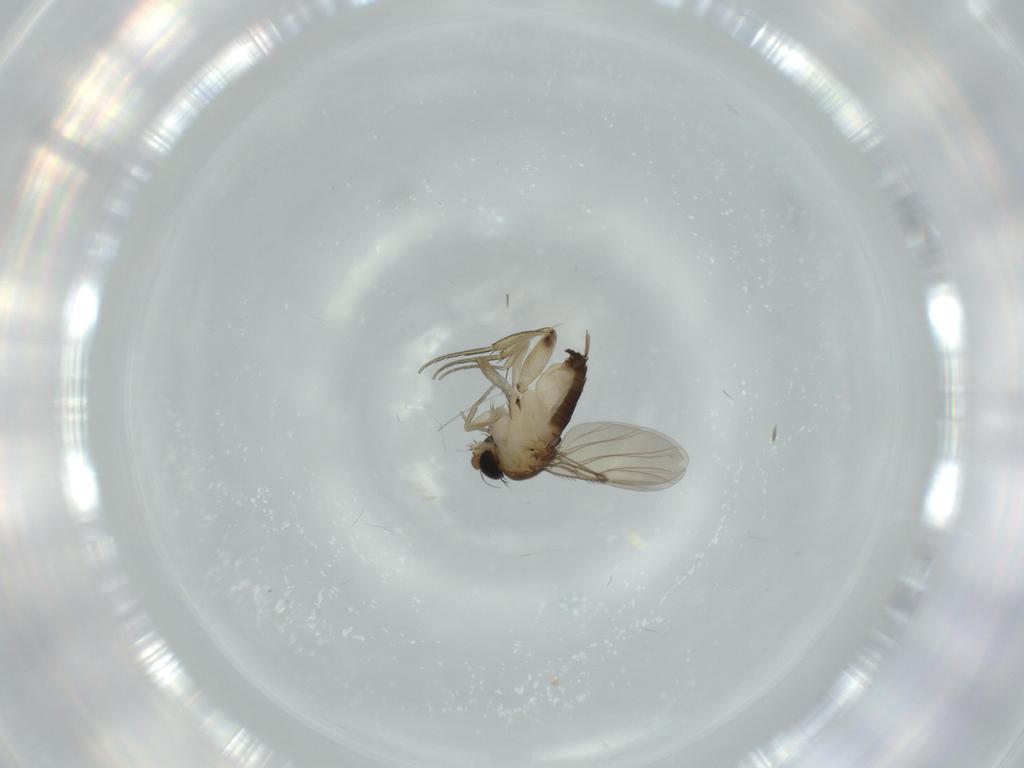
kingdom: Animalia
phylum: Arthropoda
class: Insecta
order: Diptera
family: Phoridae
